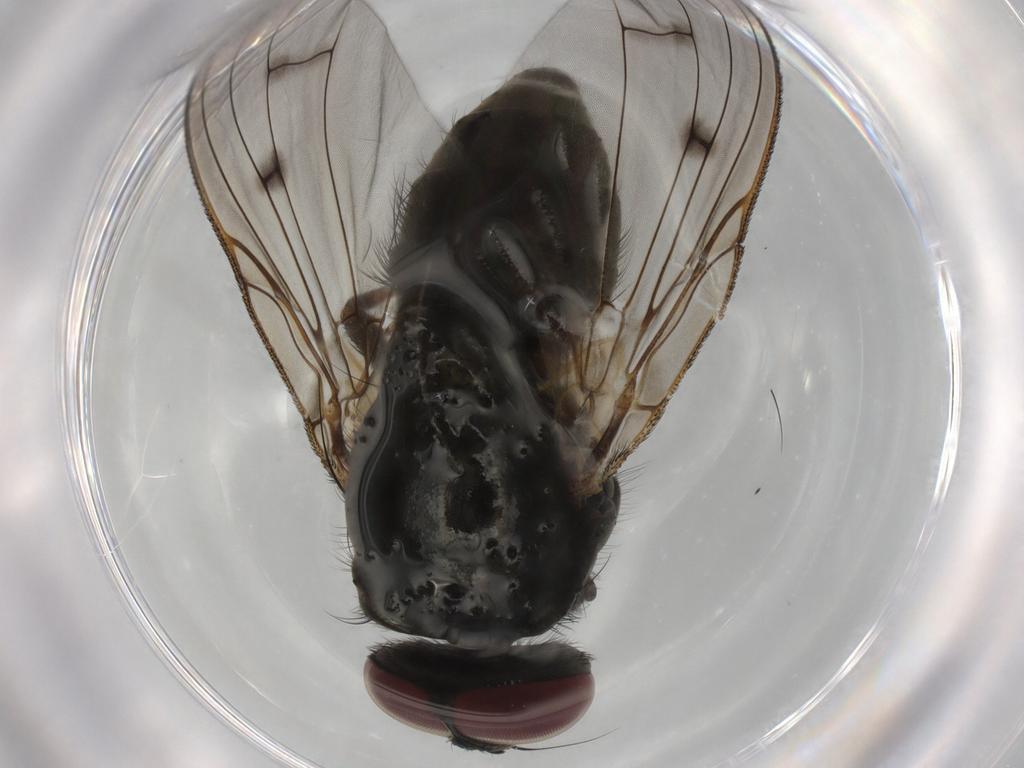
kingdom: Animalia
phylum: Arthropoda
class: Insecta
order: Diptera
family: Muscidae
